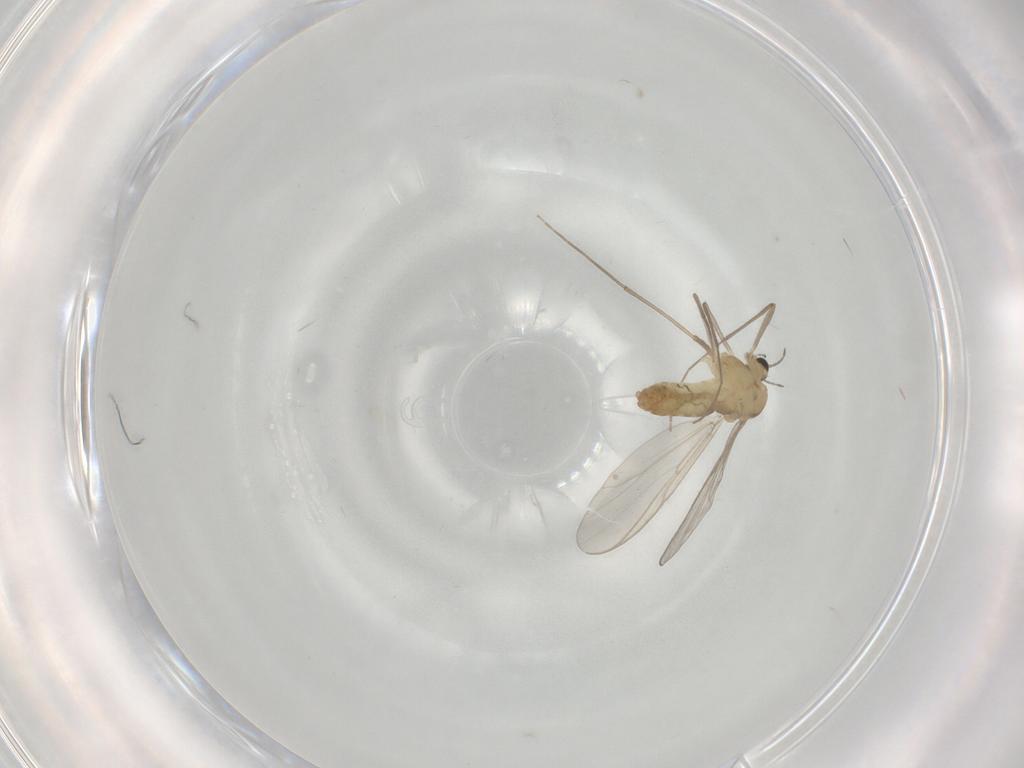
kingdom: Animalia
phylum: Arthropoda
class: Insecta
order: Diptera
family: Chironomidae
